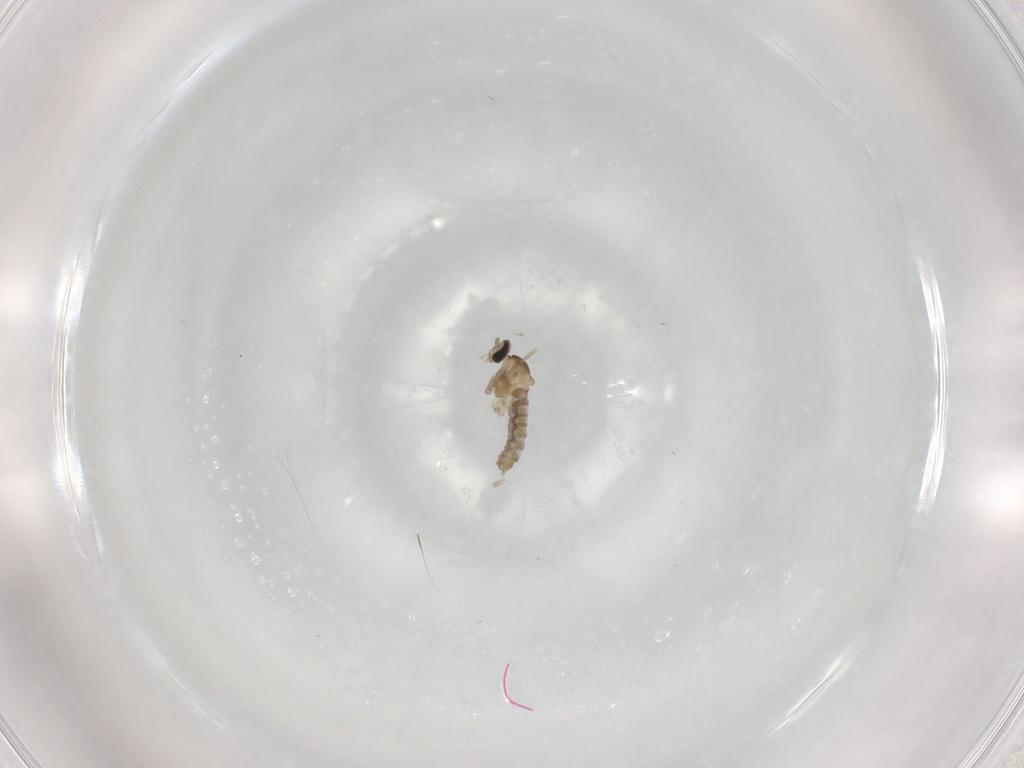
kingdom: Animalia
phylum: Arthropoda
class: Insecta
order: Diptera
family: Cecidomyiidae
